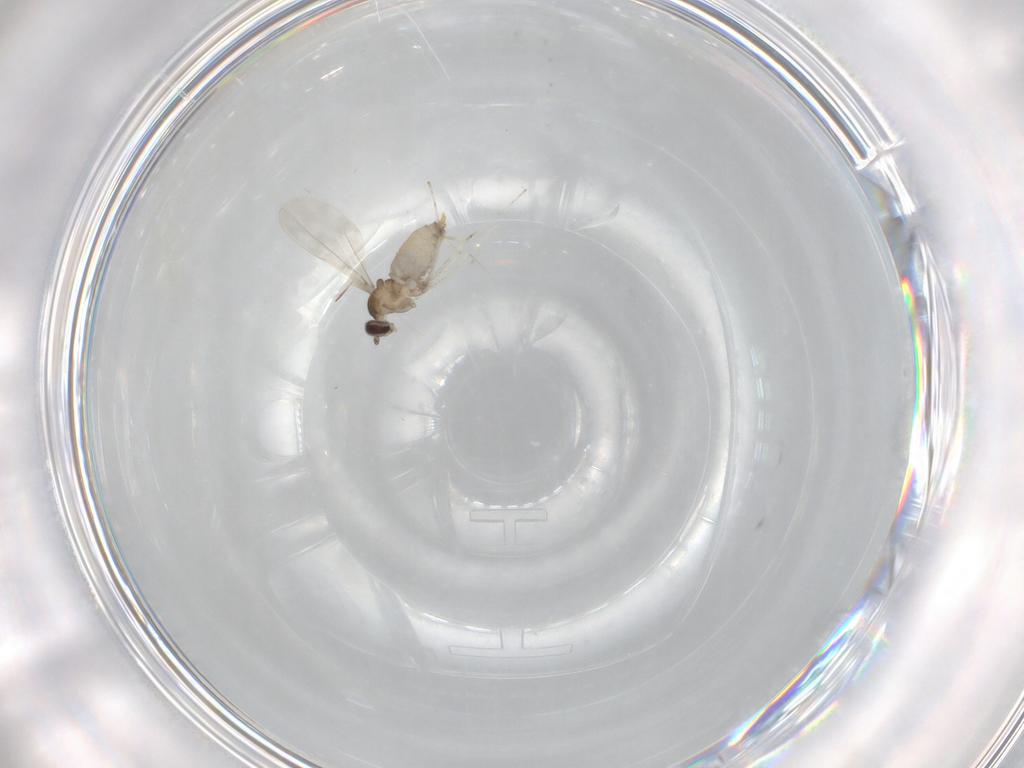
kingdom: Animalia
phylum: Arthropoda
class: Insecta
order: Diptera
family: Cecidomyiidae
